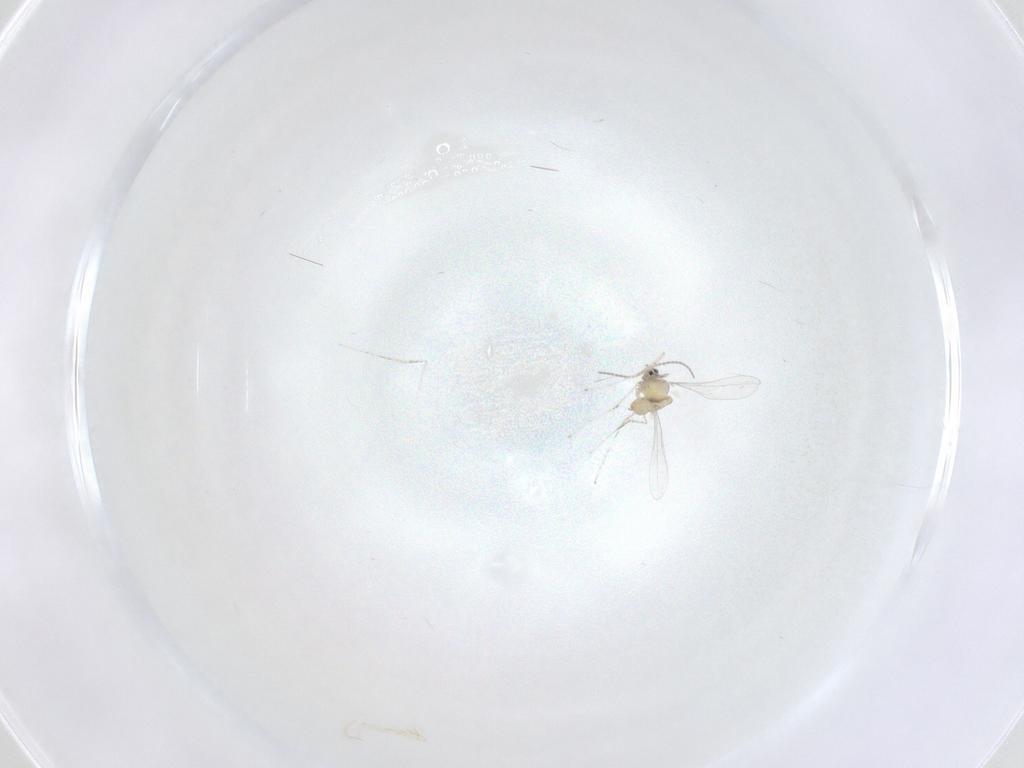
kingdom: Animalia
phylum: Arthropoda
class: Insecta
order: Diptera
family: Cecidomyiidae
